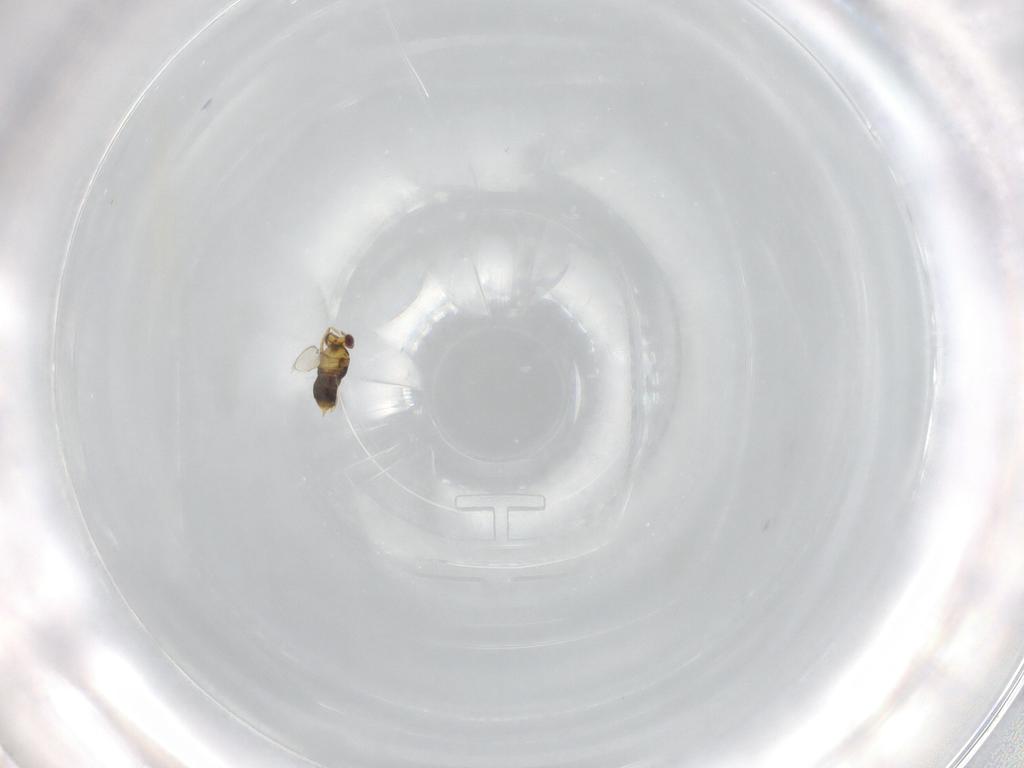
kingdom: Animalia
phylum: Arthropoda
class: Insecta
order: Hymenoptera
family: Aphelinidae
